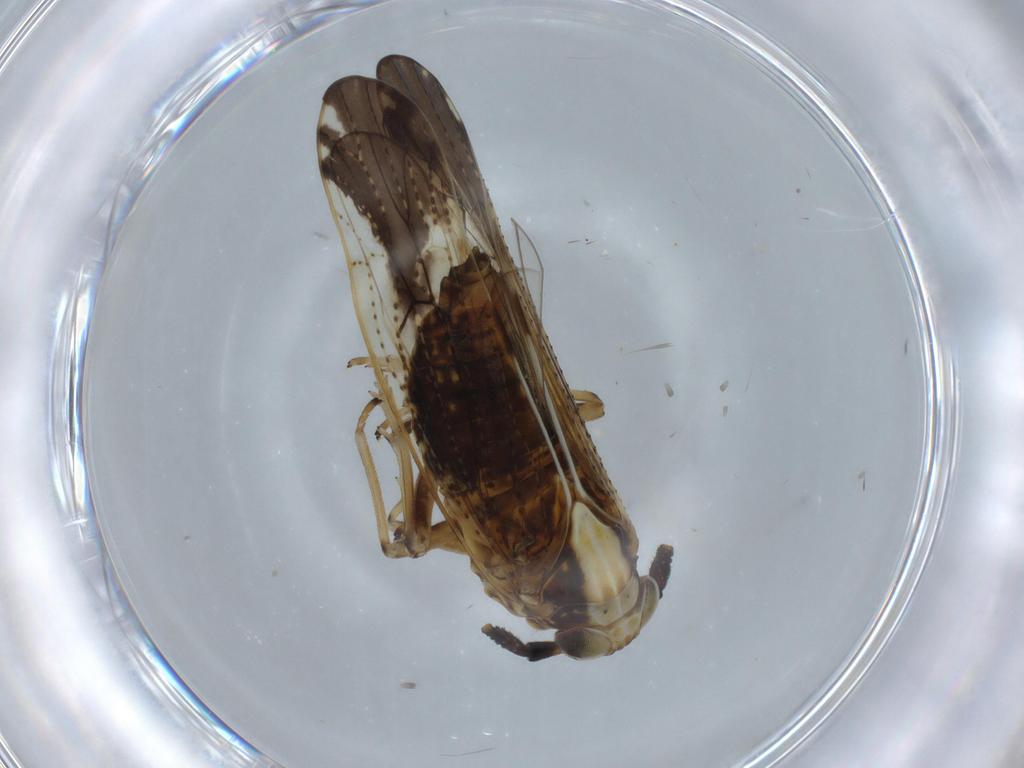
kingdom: Animalia
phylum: Arthropoda
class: Insecta
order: Hemiptera
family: Delphacidae
